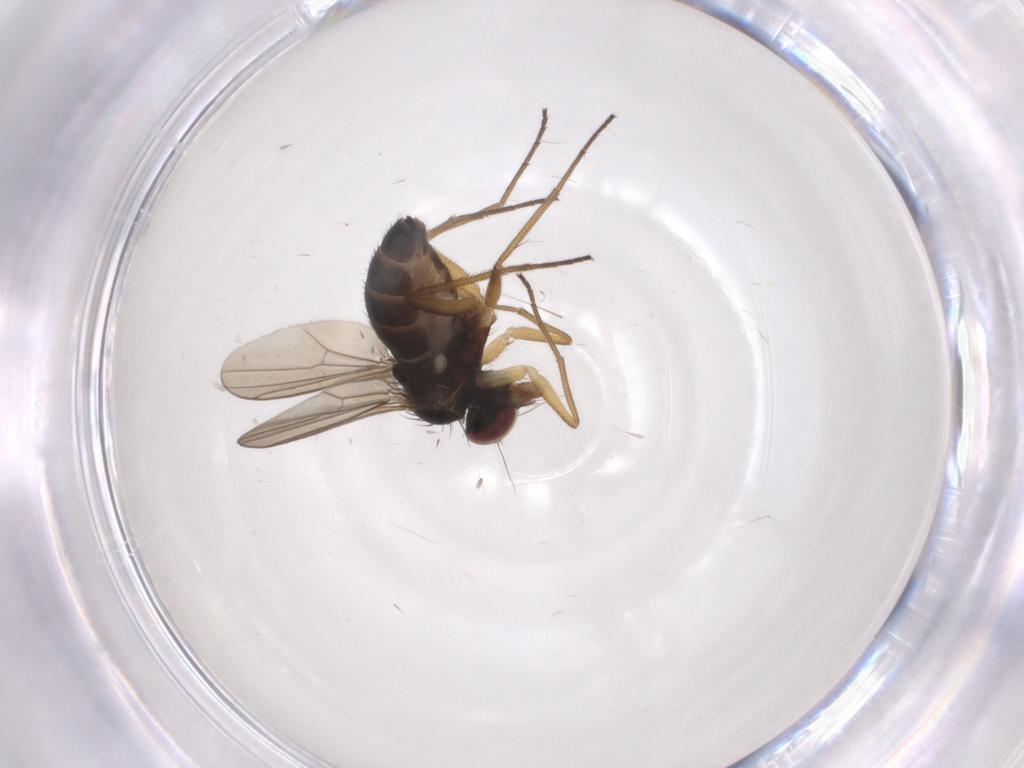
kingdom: Animalia
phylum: Arthropoda
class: Insecta
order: Diptera
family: Dolichopodidae
